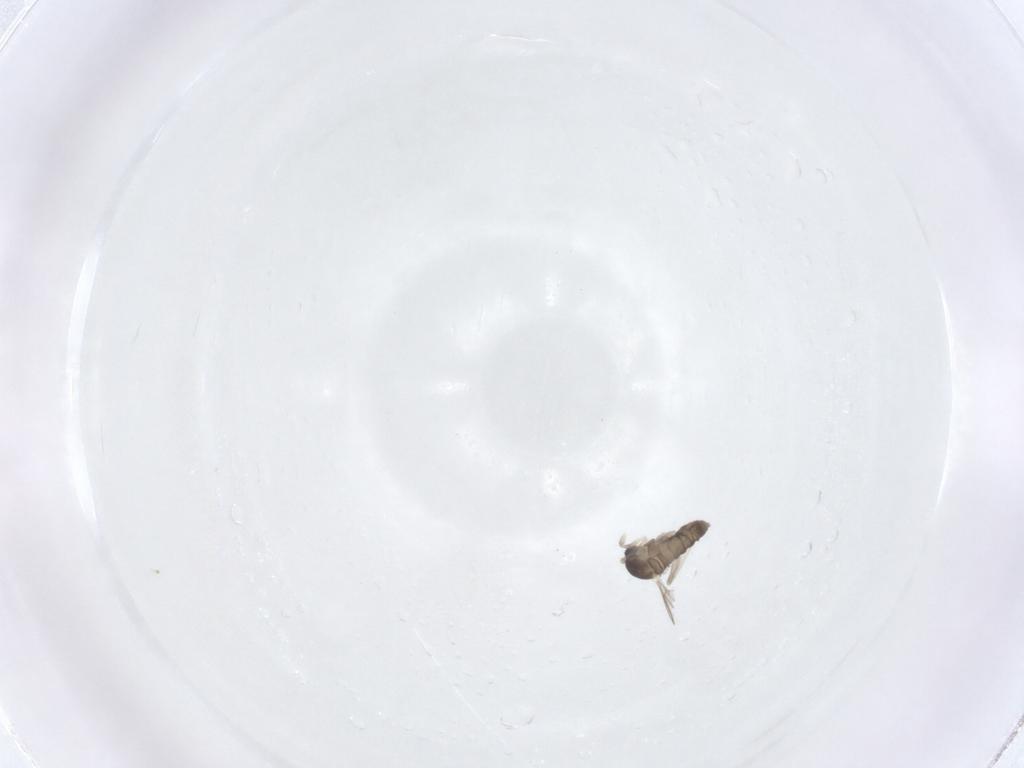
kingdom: Animalia
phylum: Arthropoda
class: Insecta
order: Diptera
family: Cecidomyiidae
